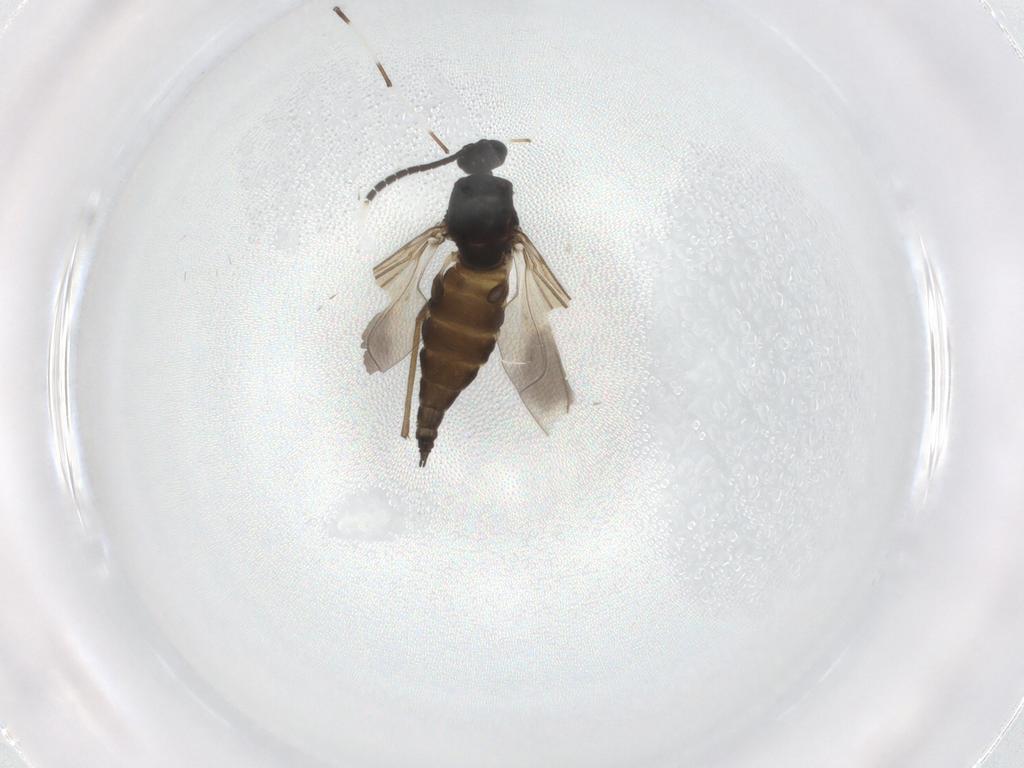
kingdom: Animalia
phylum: Arthropoda
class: Insecta
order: Diptera
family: Sciaridae
